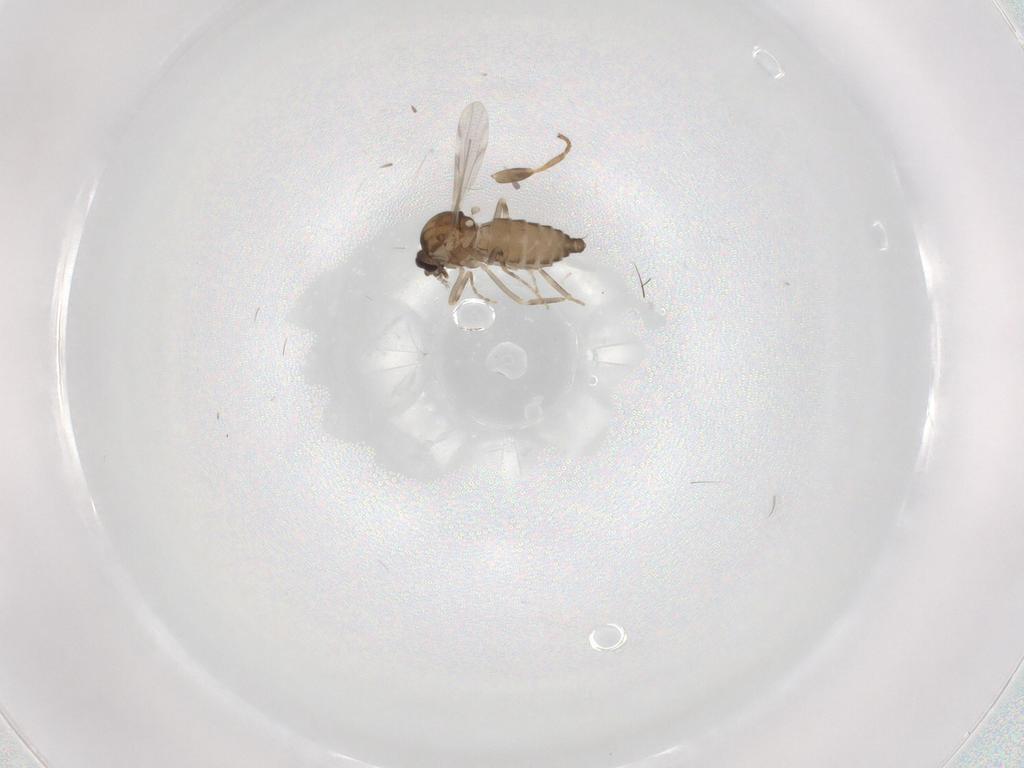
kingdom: Animalia
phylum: Arthropoda
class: Insecta
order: Diptera
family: Ceratopogonidae
